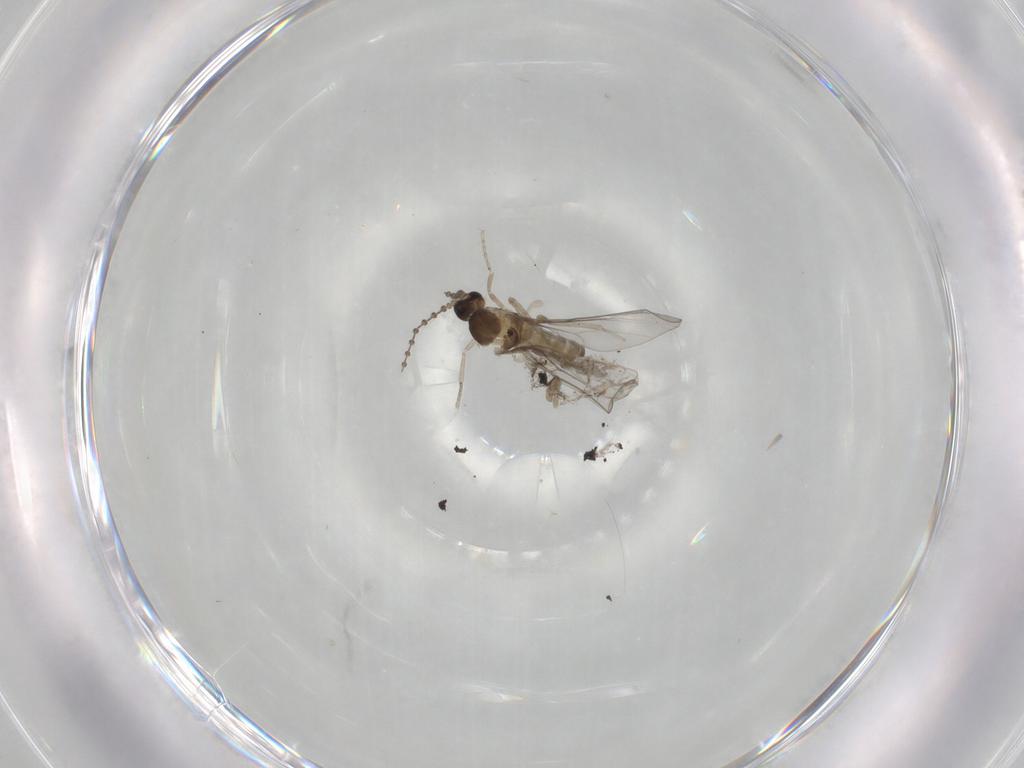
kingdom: Animalia
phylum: Arthropoda
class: Insecta
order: Diptera
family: Cecidomyiidae
